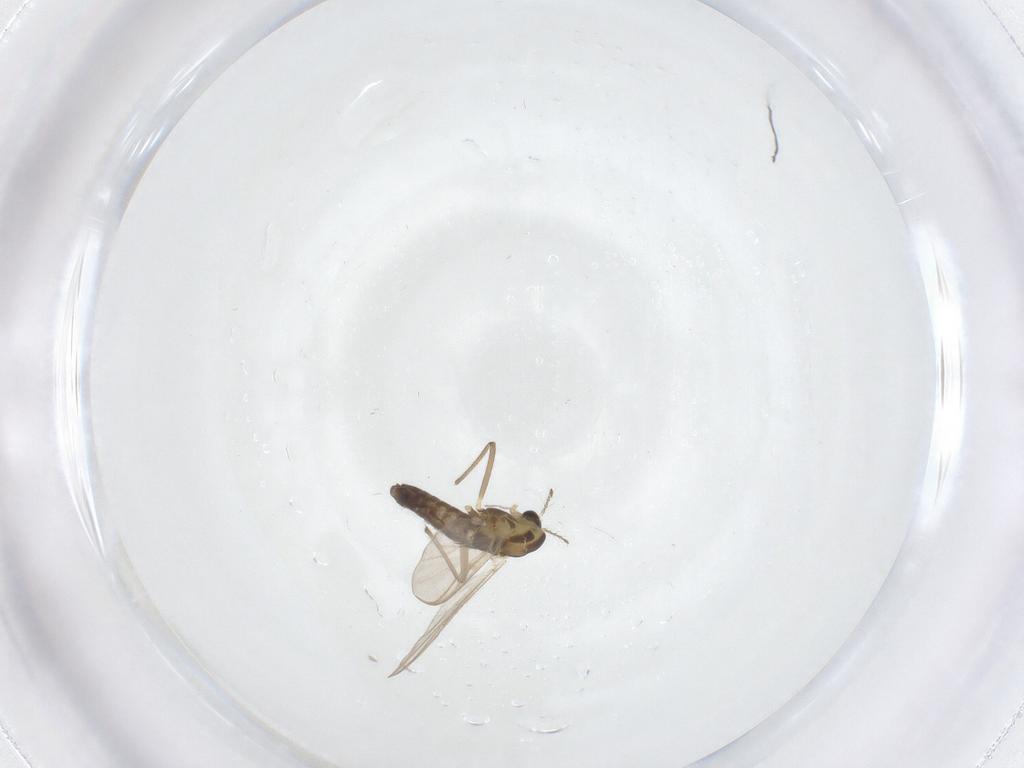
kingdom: Animalia
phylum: Arthropoda
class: Insecta
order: Diptera
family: Chironomidae
